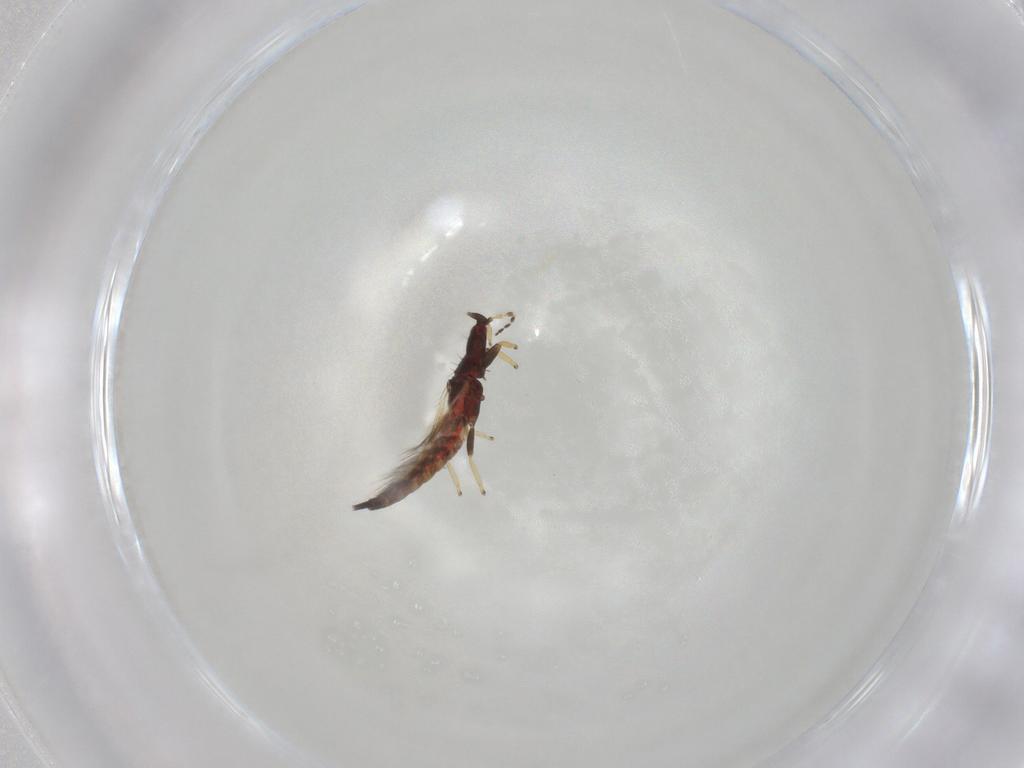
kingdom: Animalia
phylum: Arthropoda
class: Insecta
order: Thysanoptera
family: Phlaeothripidae
